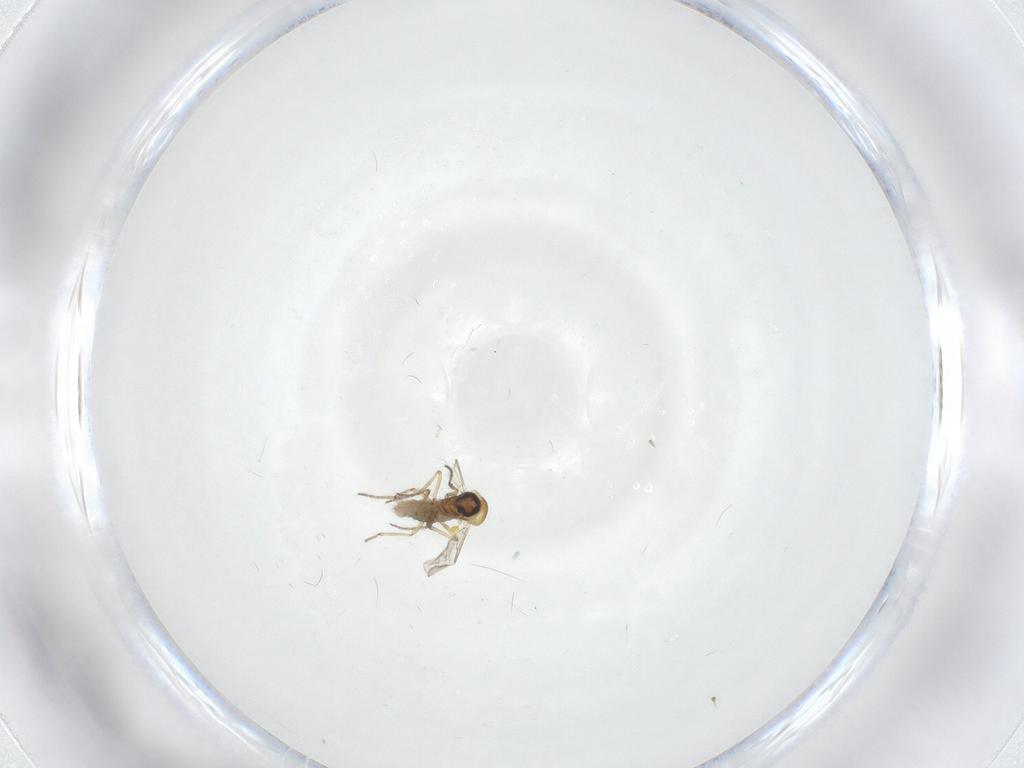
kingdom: Animalia
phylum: Arthropoda
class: Insecta
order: Diptera
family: Ceratopogonidae
